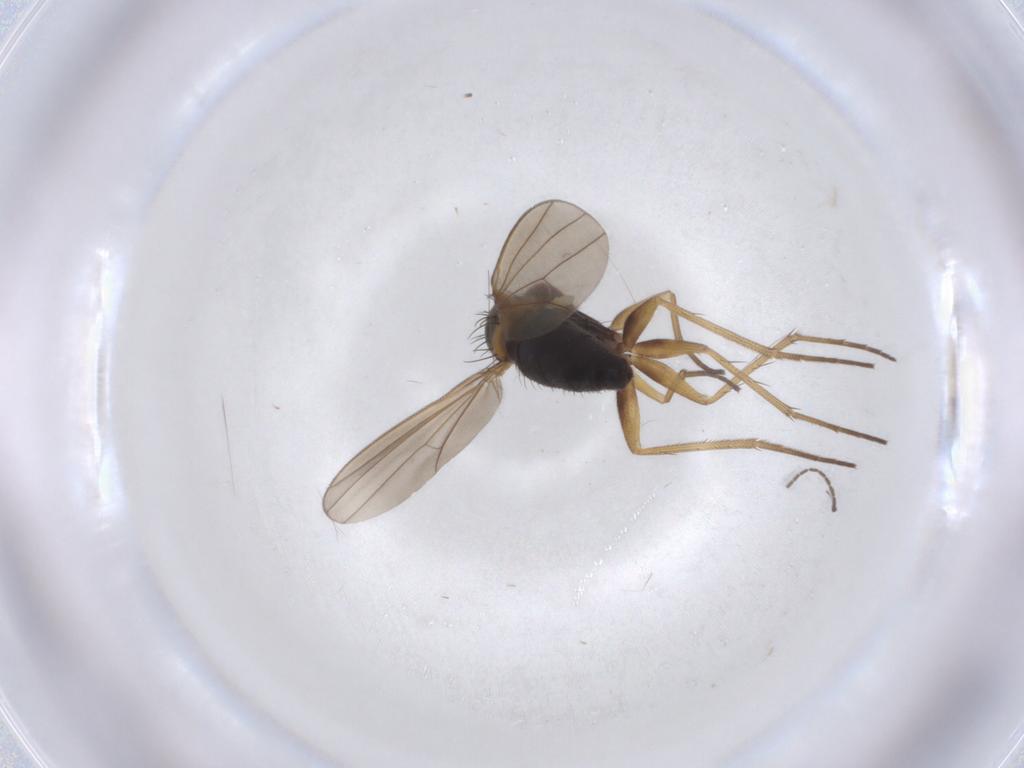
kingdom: Animalia
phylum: Arthropoda
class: Insecta
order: Diptera
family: Cecidomyiidae
